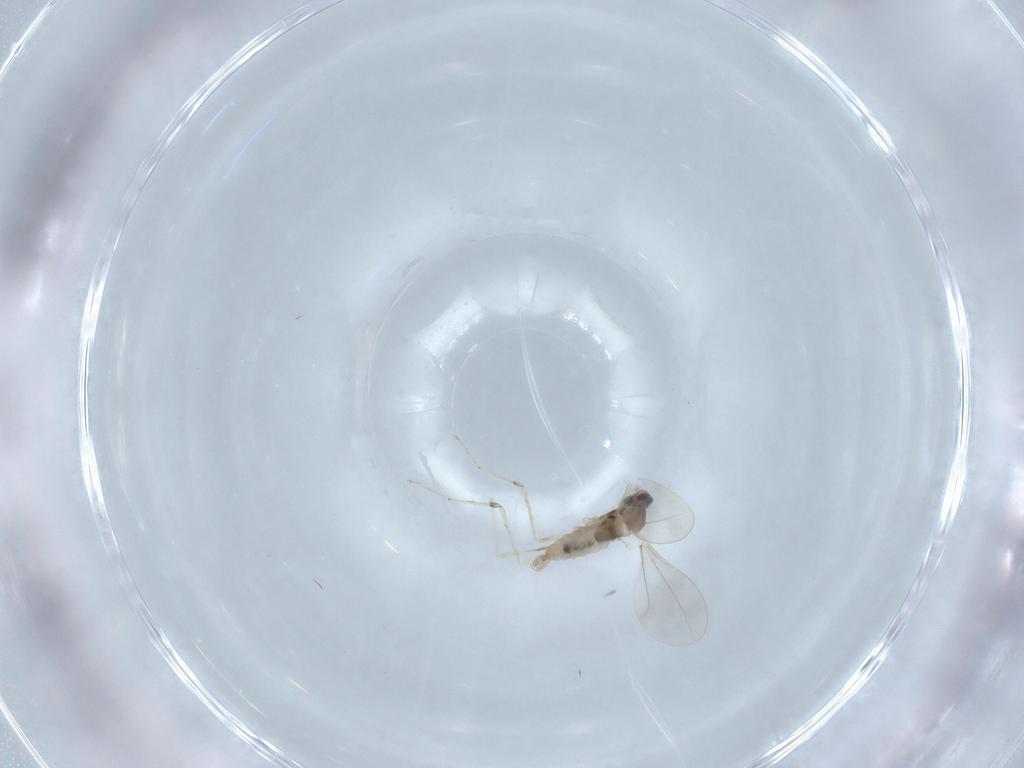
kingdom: Animalia
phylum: Arthropoda
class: Insecta
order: Diptera
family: Cecidomyiidae
